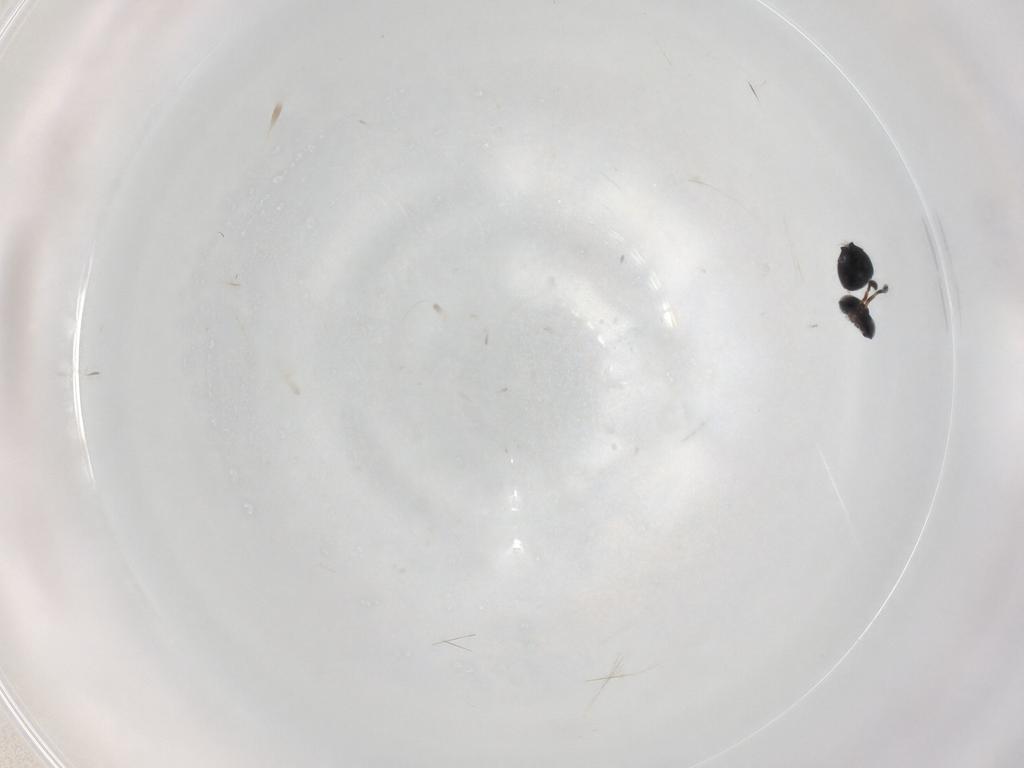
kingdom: Animalia
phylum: Arthropoda
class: Insecta
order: Hymenoptera
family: Scelionidae
